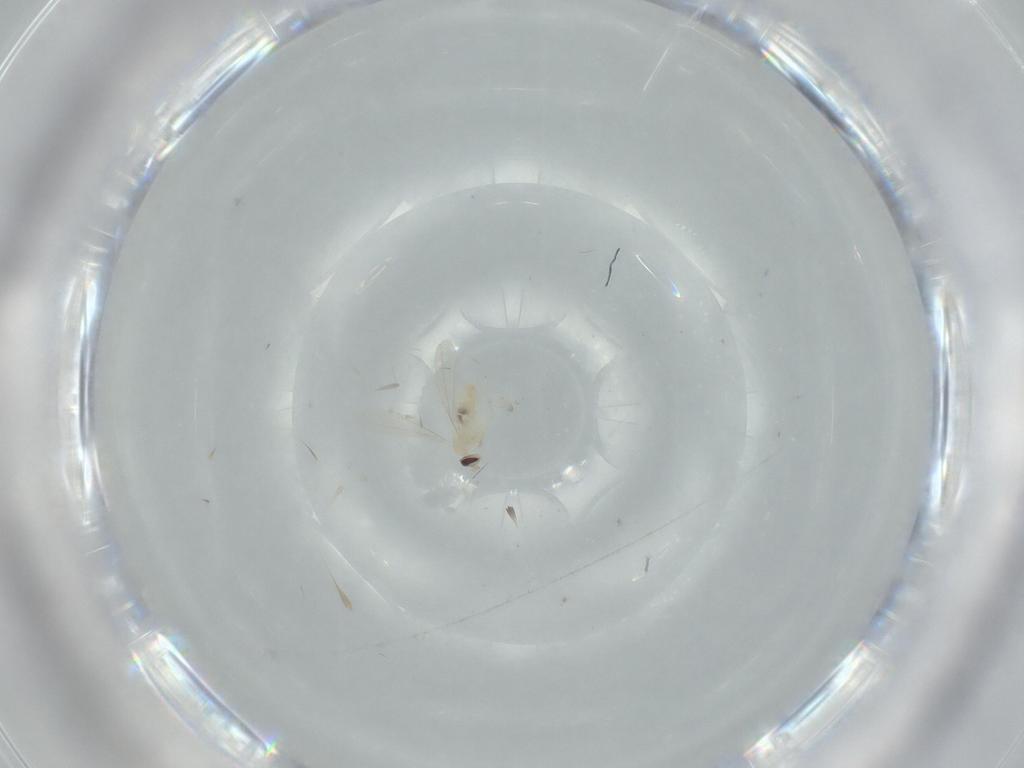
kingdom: Animalia
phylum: Arthropoda
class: Insecta
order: Diptera
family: Cecidomyiidae
